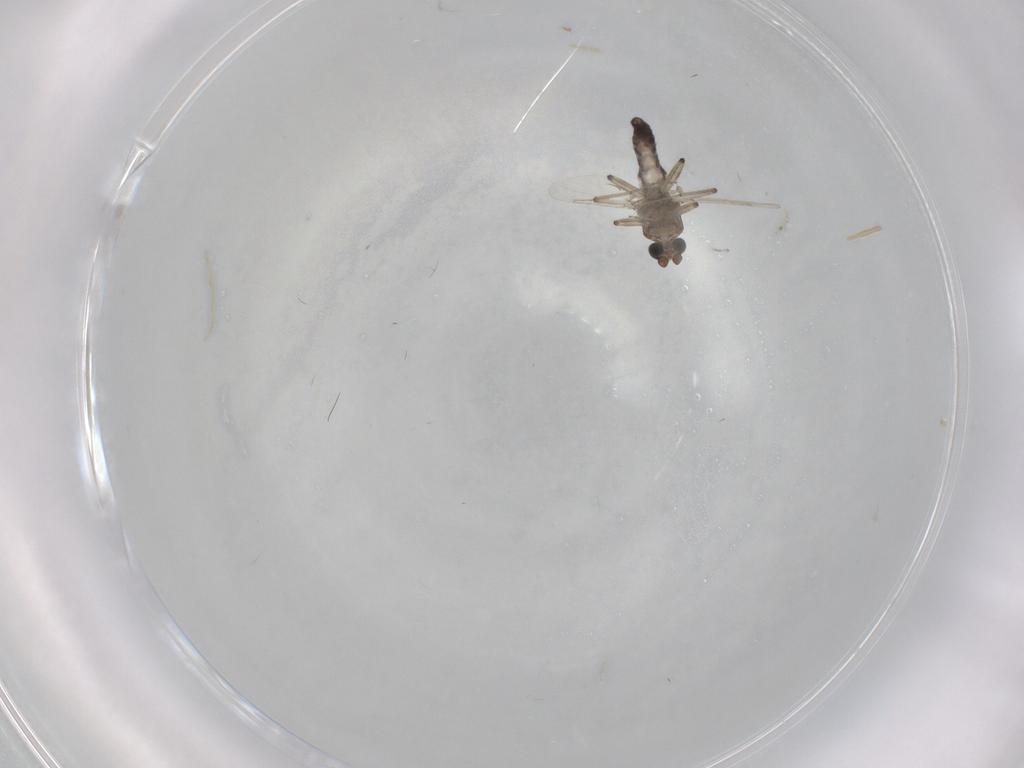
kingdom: Animalia
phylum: Arthropoda
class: Insecta
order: Diptera
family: Ceratopogonidae
